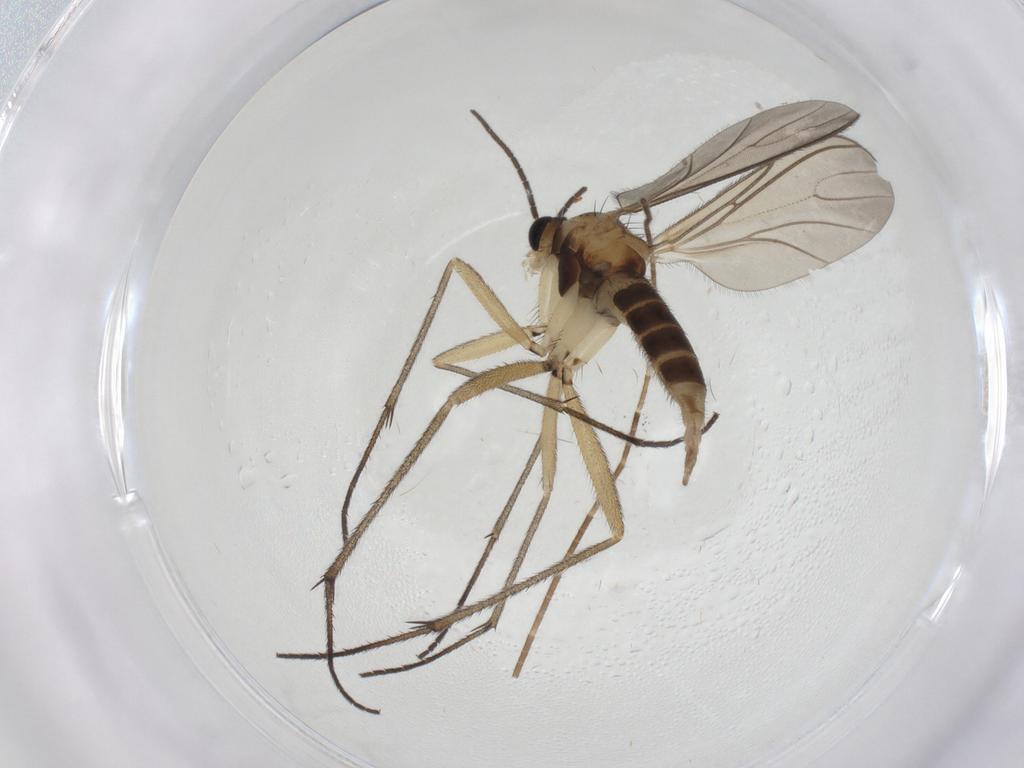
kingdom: Animalia
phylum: Arthropoda
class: Insecta
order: Diptera
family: Sciaridae
